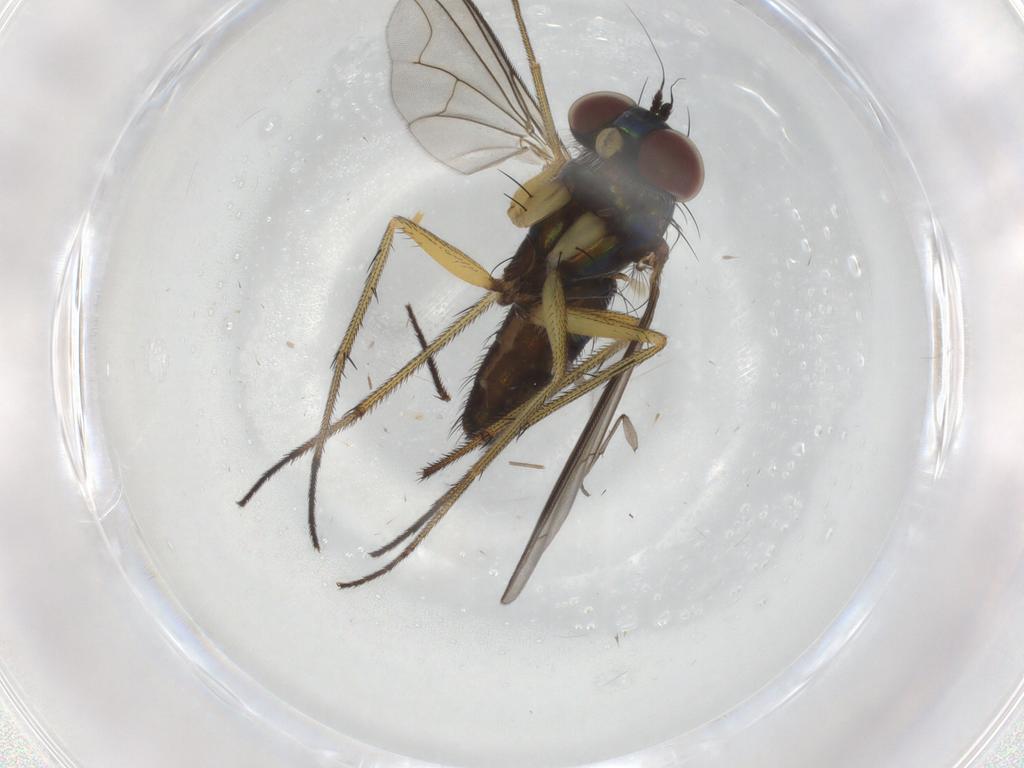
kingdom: Animalia
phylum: Arthropoda
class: Insecta
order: Diptera
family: Dolichopodidae
